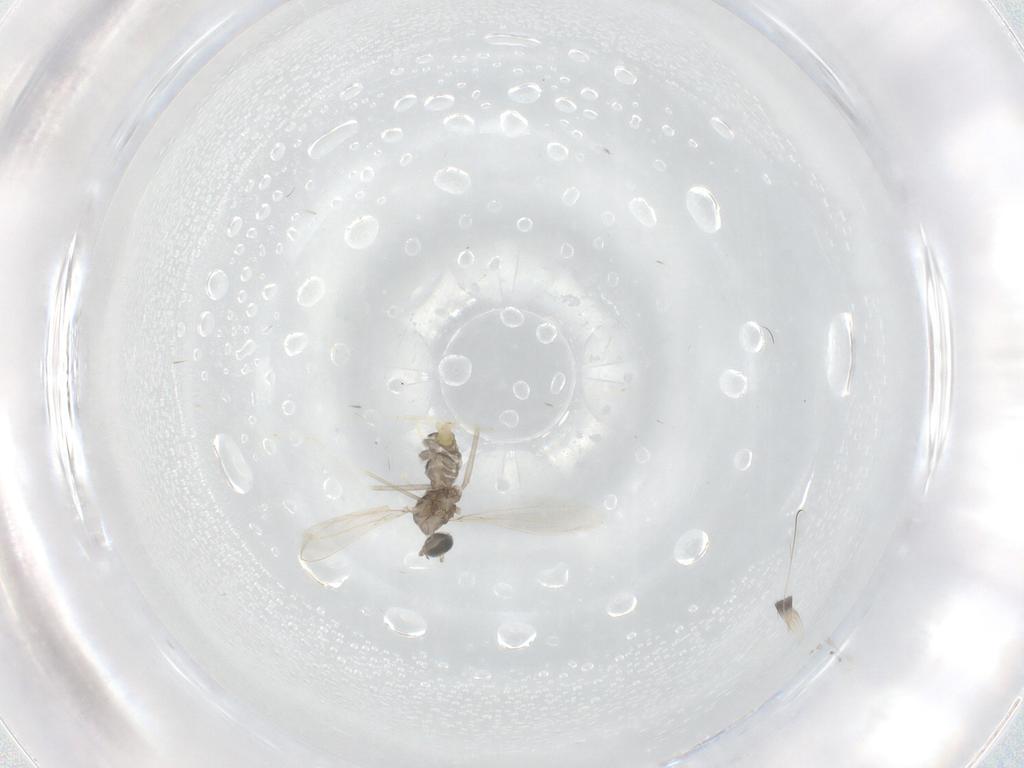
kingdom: Animalia
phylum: Arthropoda
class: Insecta
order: Diptera
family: Cecidomyiidae
